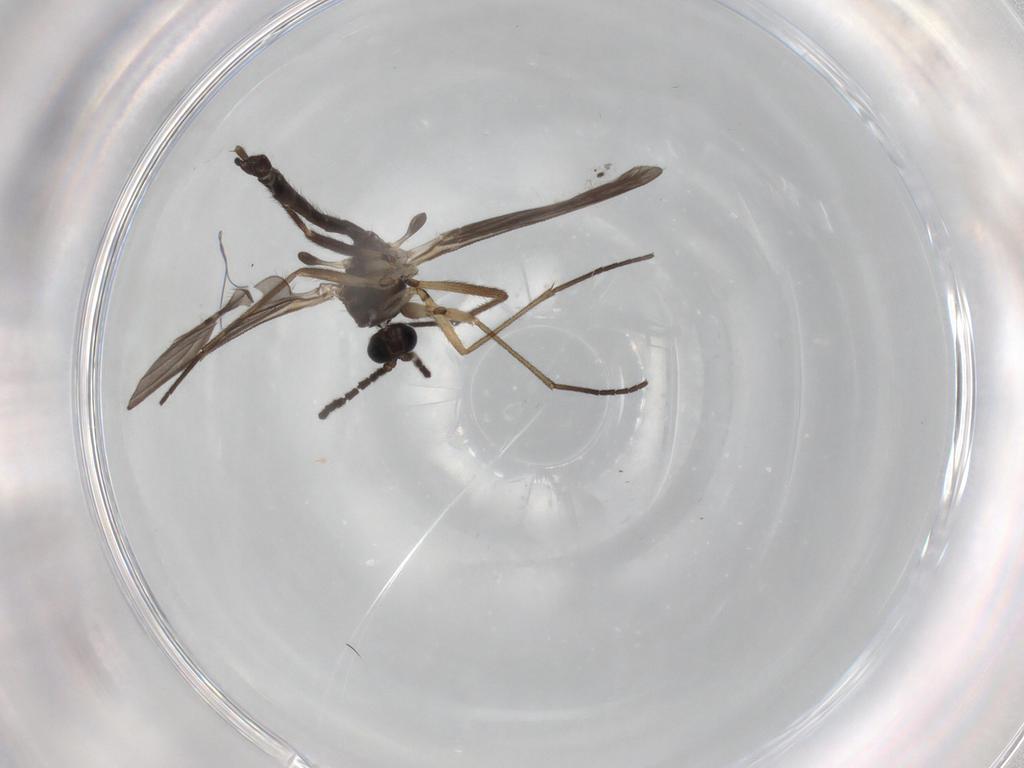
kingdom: Animalia
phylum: Arthropoda
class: Insecta
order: Diptera
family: Sciaridae
